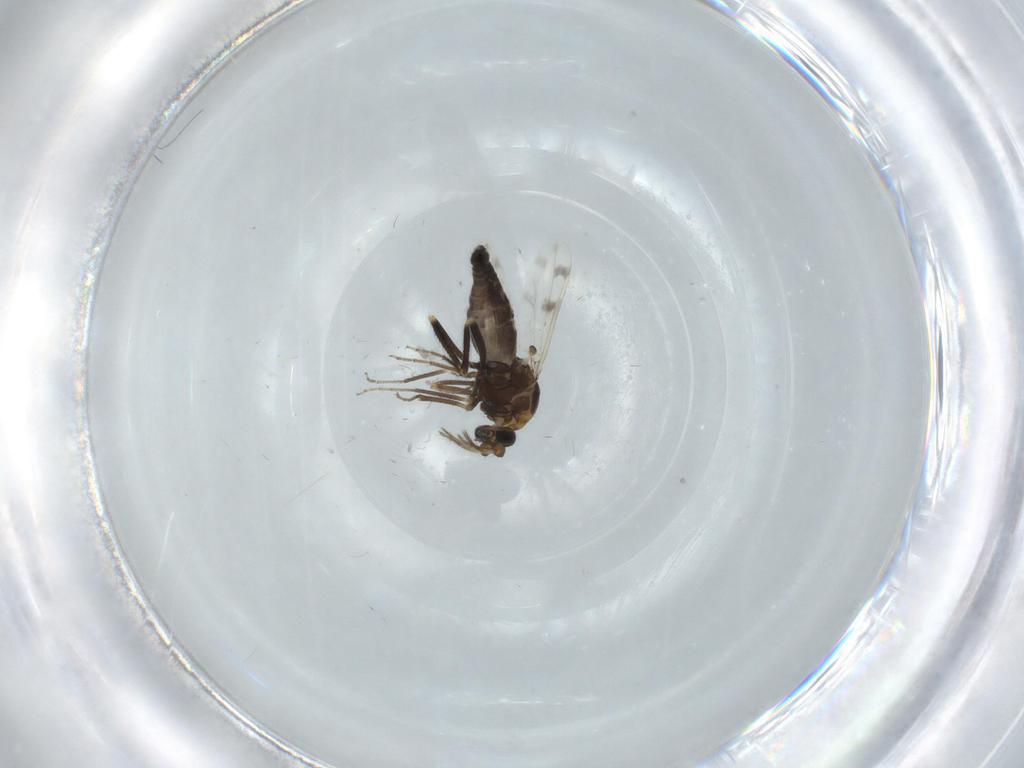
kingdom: Animalia
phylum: Arthropoda
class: Insecta
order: Diptera
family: Ceratopogonidae
